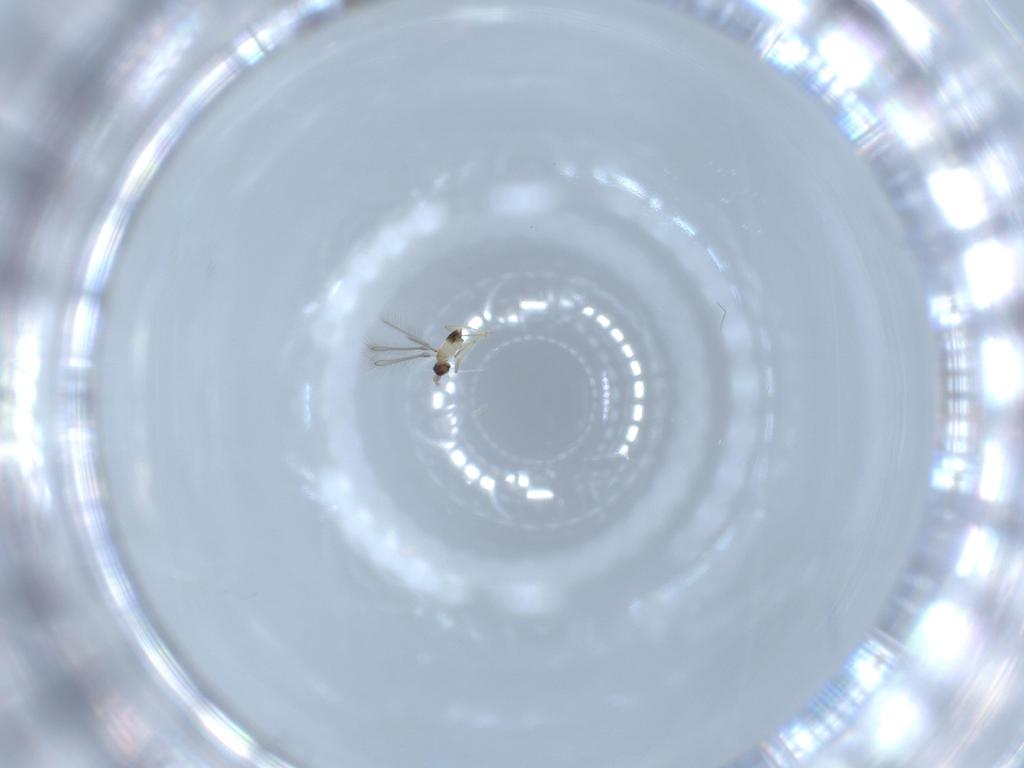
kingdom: Animalia
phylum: Arthropoda
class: Insecta
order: Hymenoptera
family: Mymaridae
